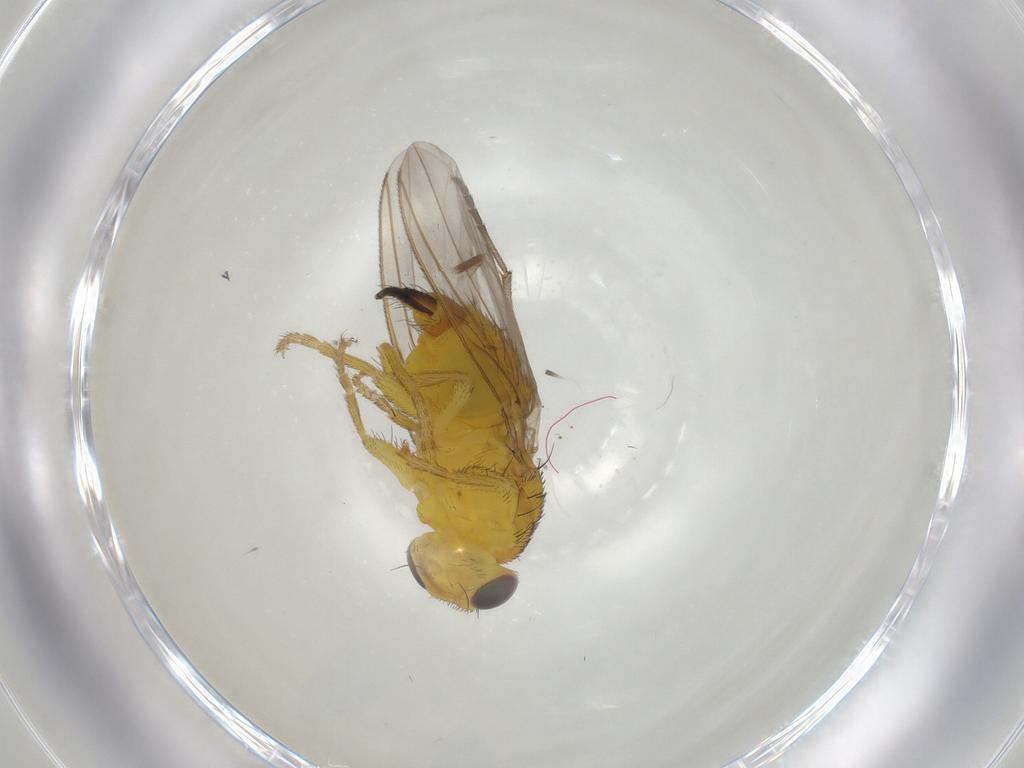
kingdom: Animalia
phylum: Arthropoda
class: Insecta
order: Diptera
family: Fergusoninidae
